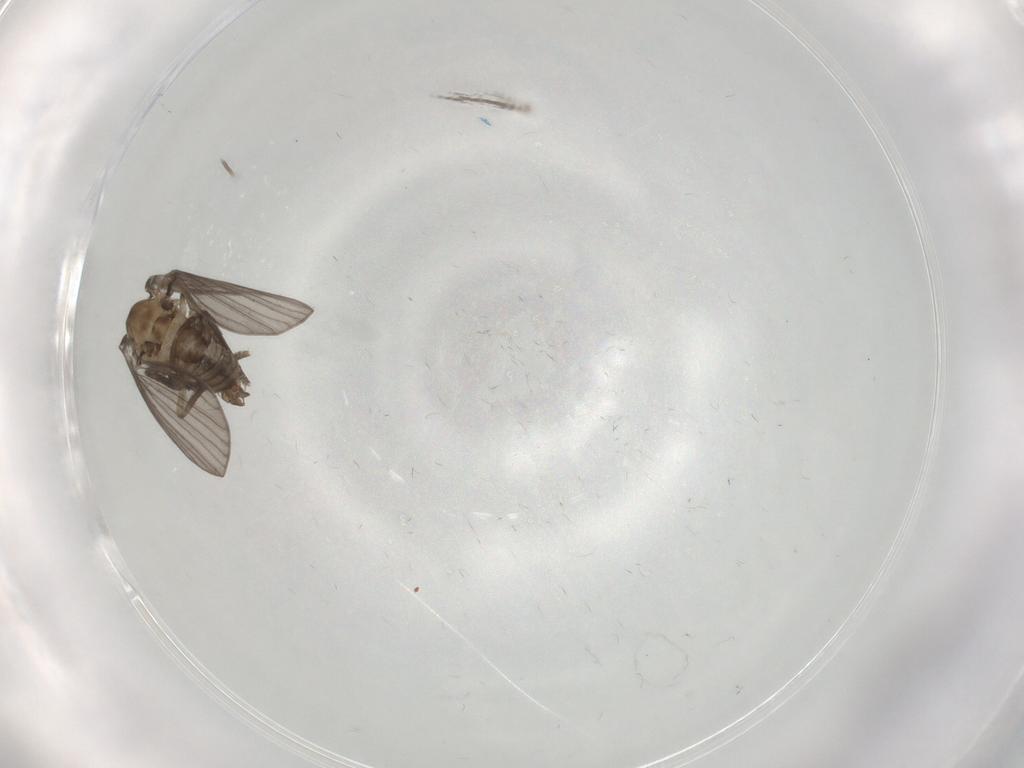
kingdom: Animalia
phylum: Arthropoda
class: Insecta
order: Diptera
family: Psychodidae
